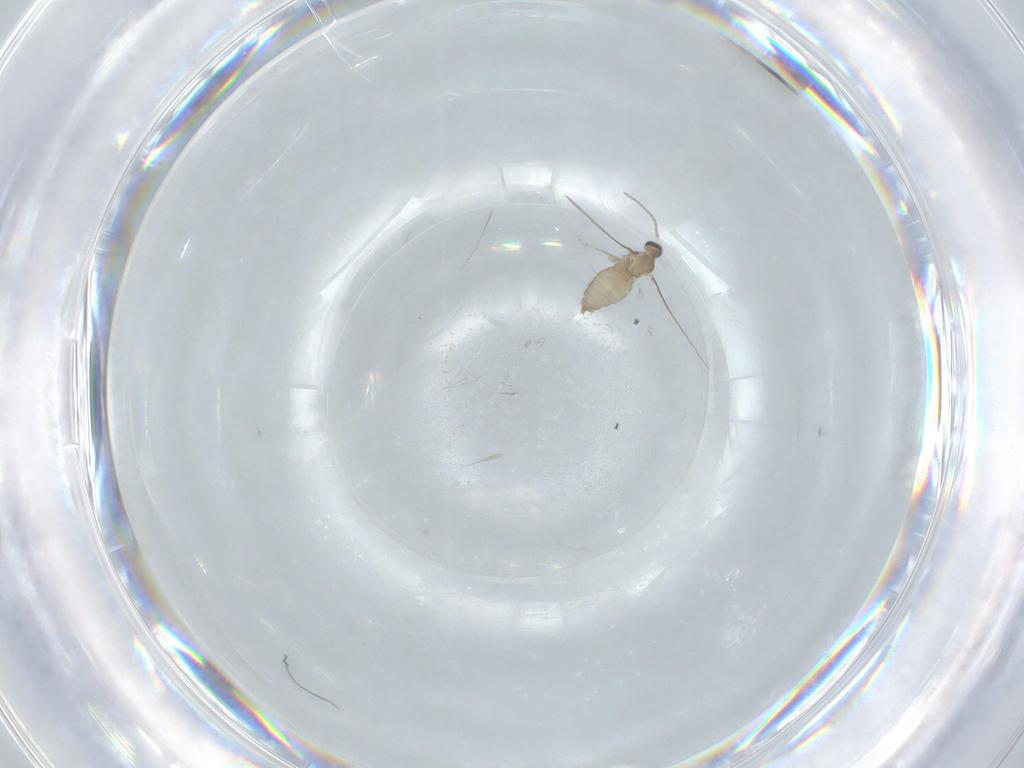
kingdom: Animalia
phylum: Arthropoda
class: Insecta
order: Diptera
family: Cecidomyiidae
